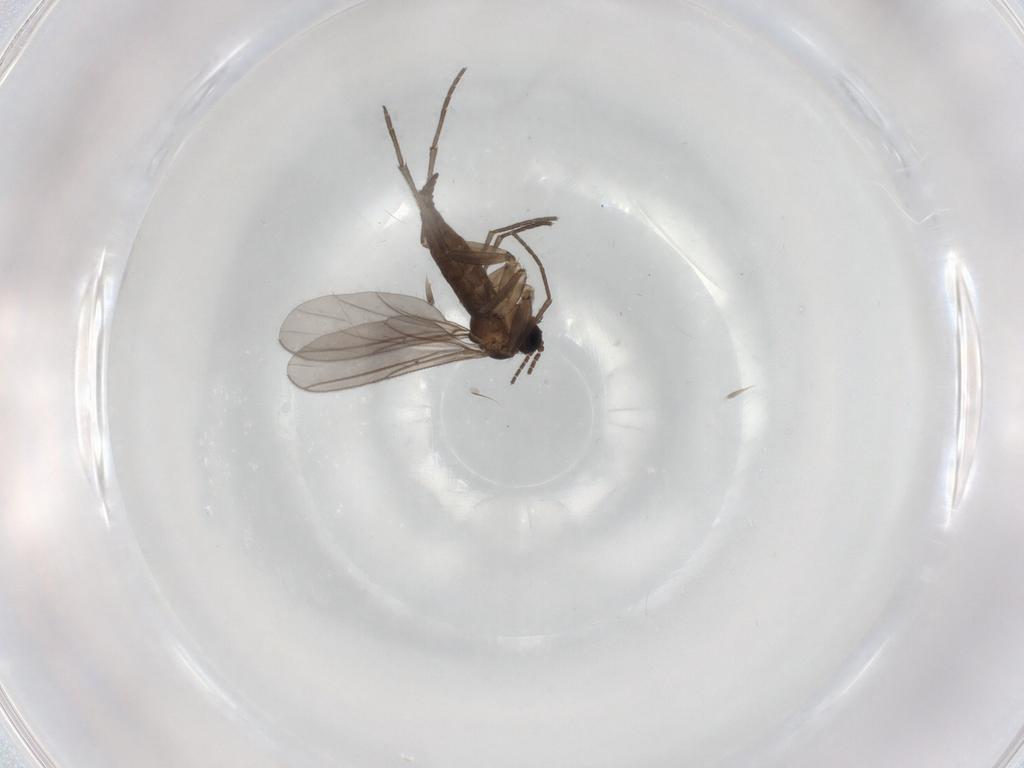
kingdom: Animalia
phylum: Arthropoda
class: Insecta
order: Diptera
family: Sciaridae
